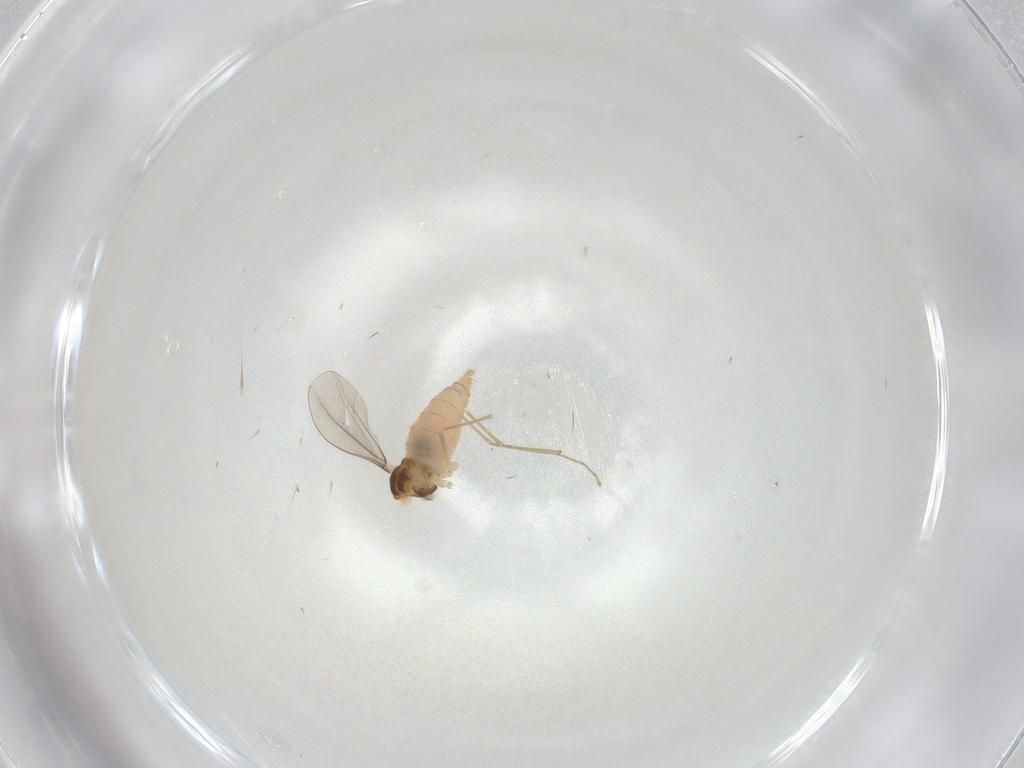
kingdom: Animalia
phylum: Arthropoda
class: Insecta
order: Diptera
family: Cecidomyiidae
